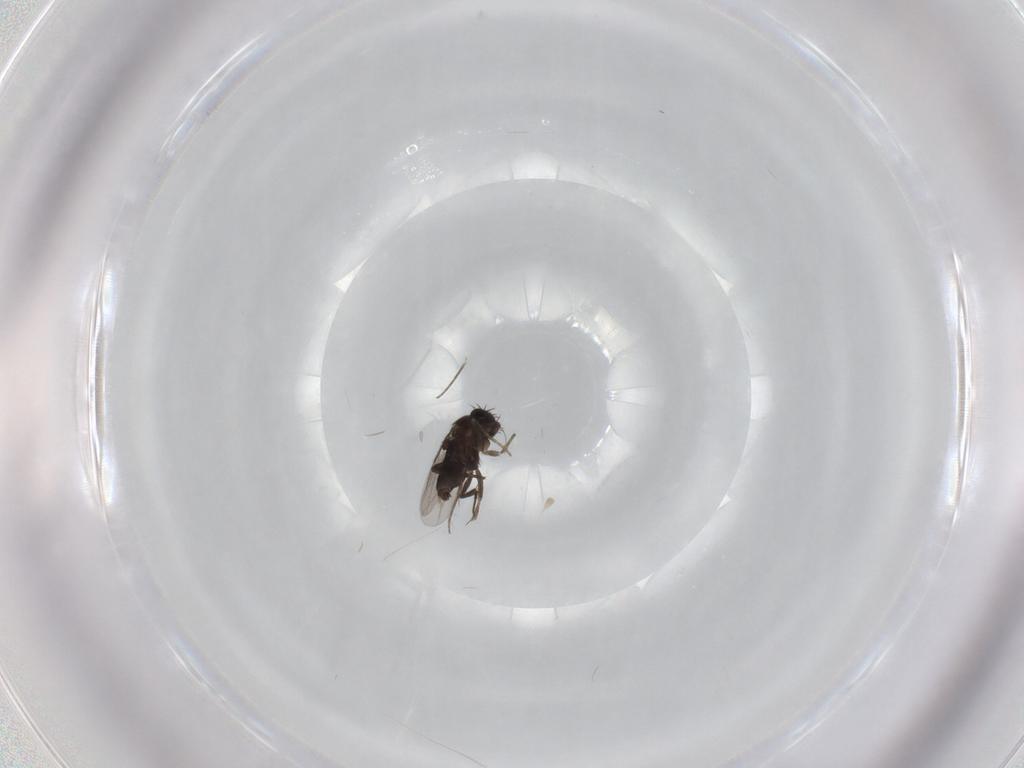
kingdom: Animalia
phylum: Arthropoda
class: Insecta
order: Diptera
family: Phoridae
